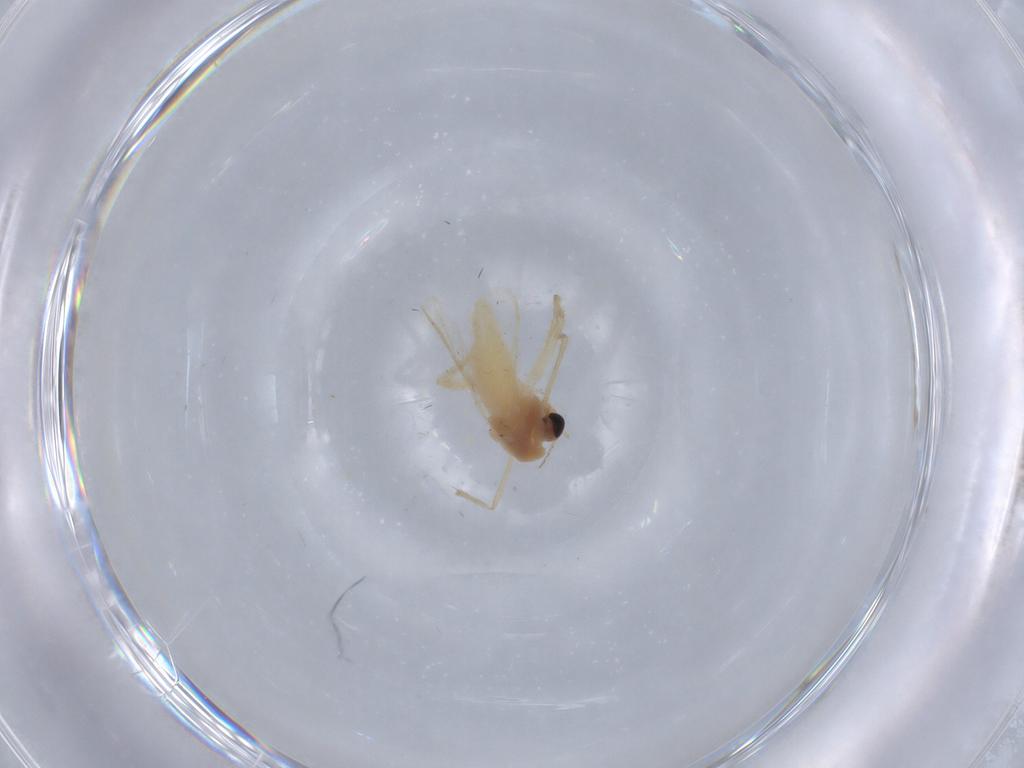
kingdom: Animalia
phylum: Arthropoda
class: Insecta
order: Diptera
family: Chironomidae
